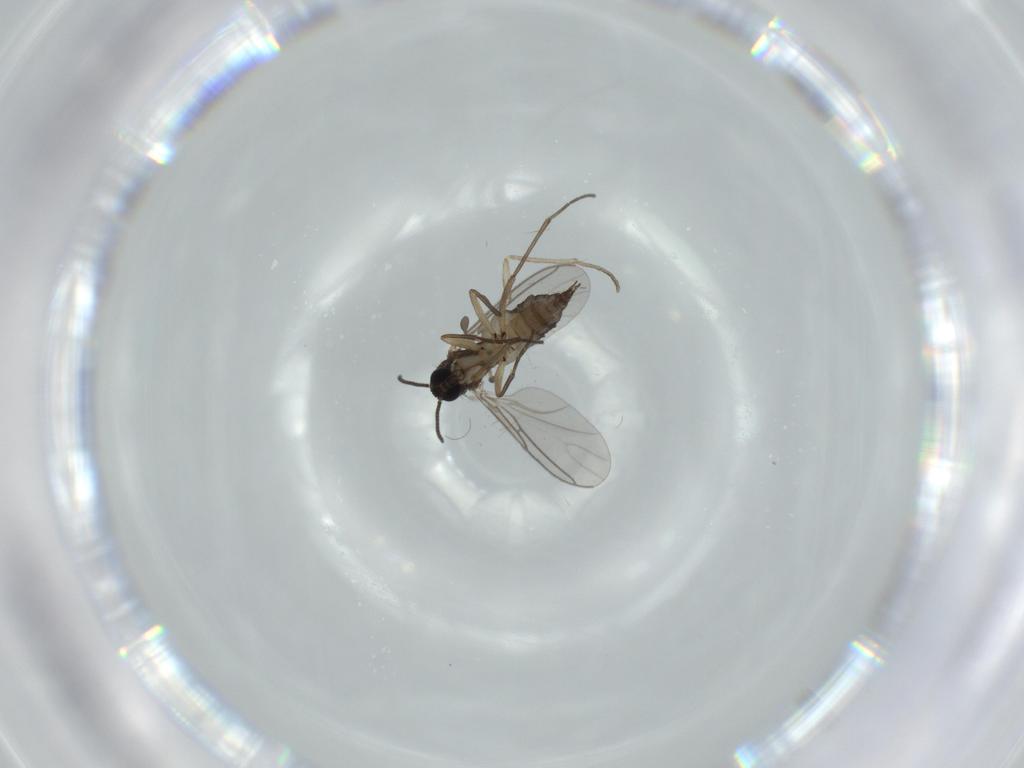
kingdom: Animalia
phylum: Arthropoda
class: Insecta
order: Diptera
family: Sciaridae
